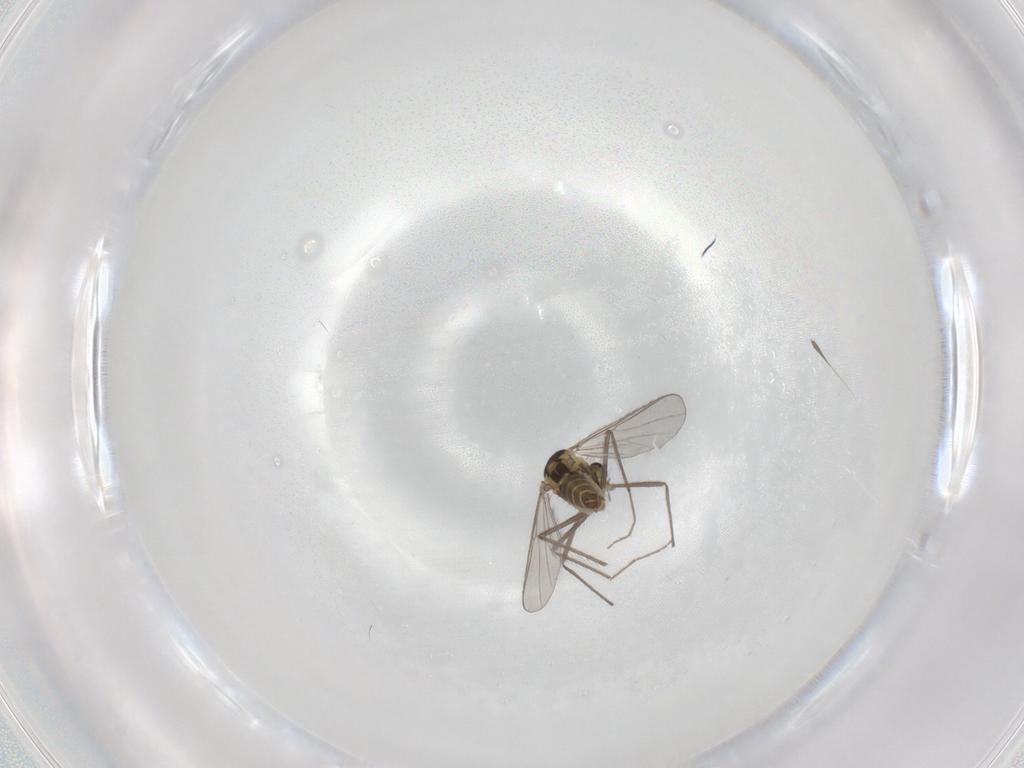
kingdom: Animalia
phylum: Arthropoda
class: Insecta
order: Diptera
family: Chironomidae
